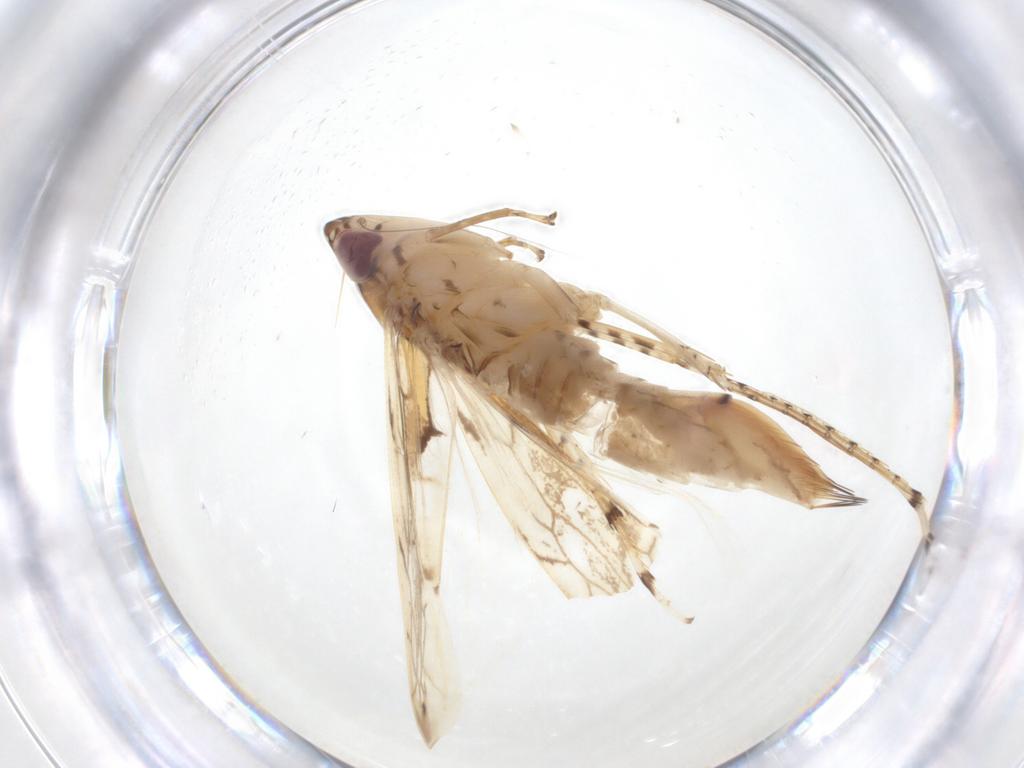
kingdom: Animalia
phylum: Arthropoda
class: Insecta
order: Hemiptera
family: Cicadellidae
